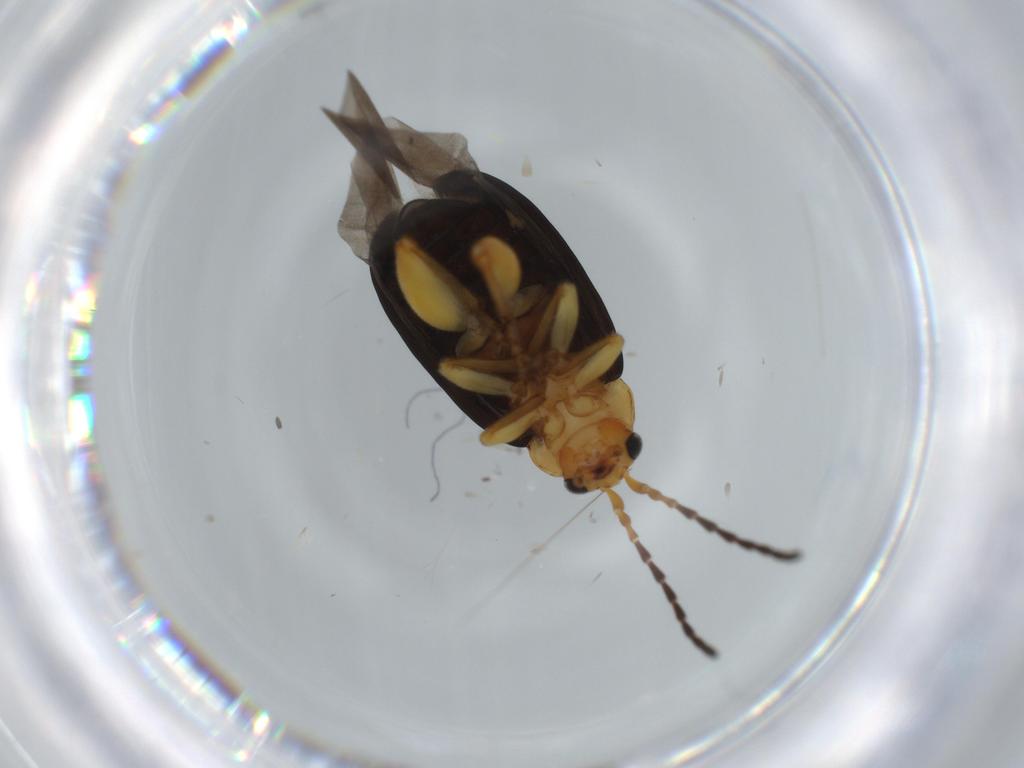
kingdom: Animalia
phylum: Arthropoda
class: Insecta
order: Coleoptera
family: Chrysomelidae
